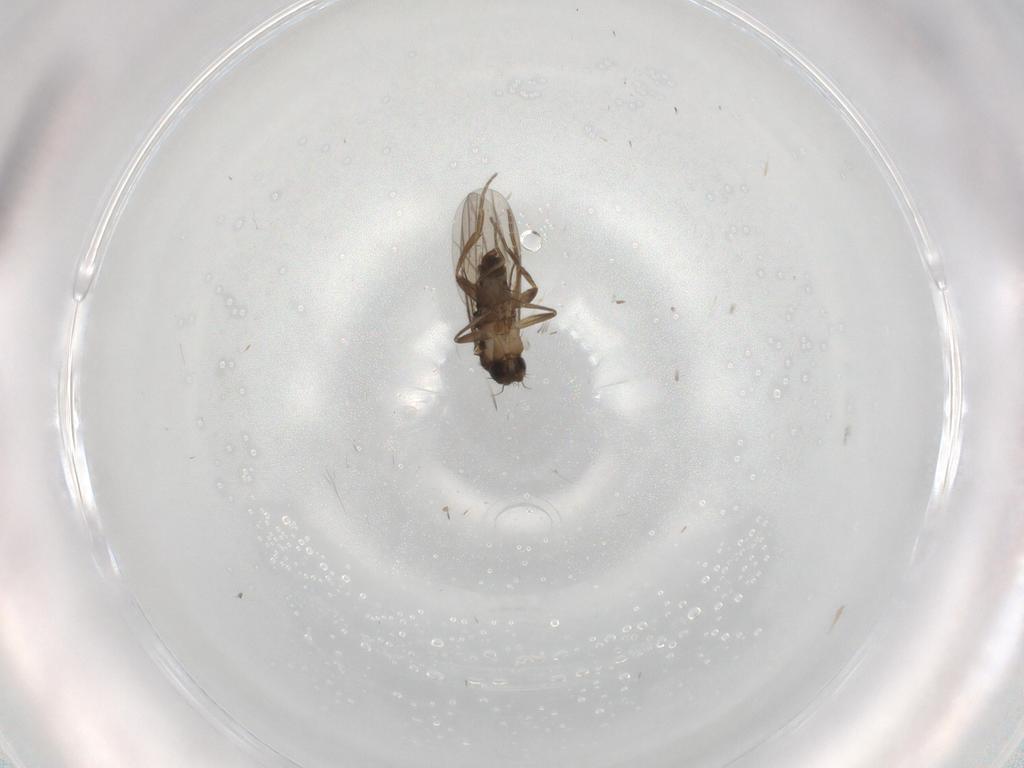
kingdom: Animalia
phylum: Arthropoda
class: Insecta
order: Diptera
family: Phoridae
